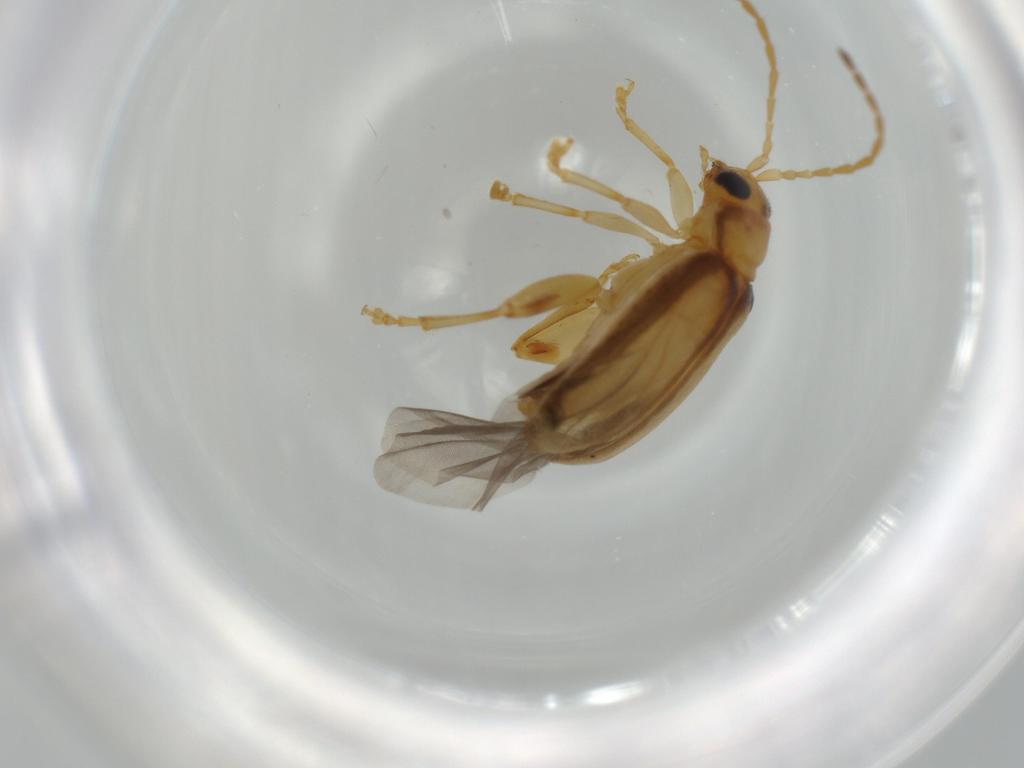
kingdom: Animalia
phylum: Arthropoda
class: Insecta
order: Coleoptera
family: Chrysomelidae
